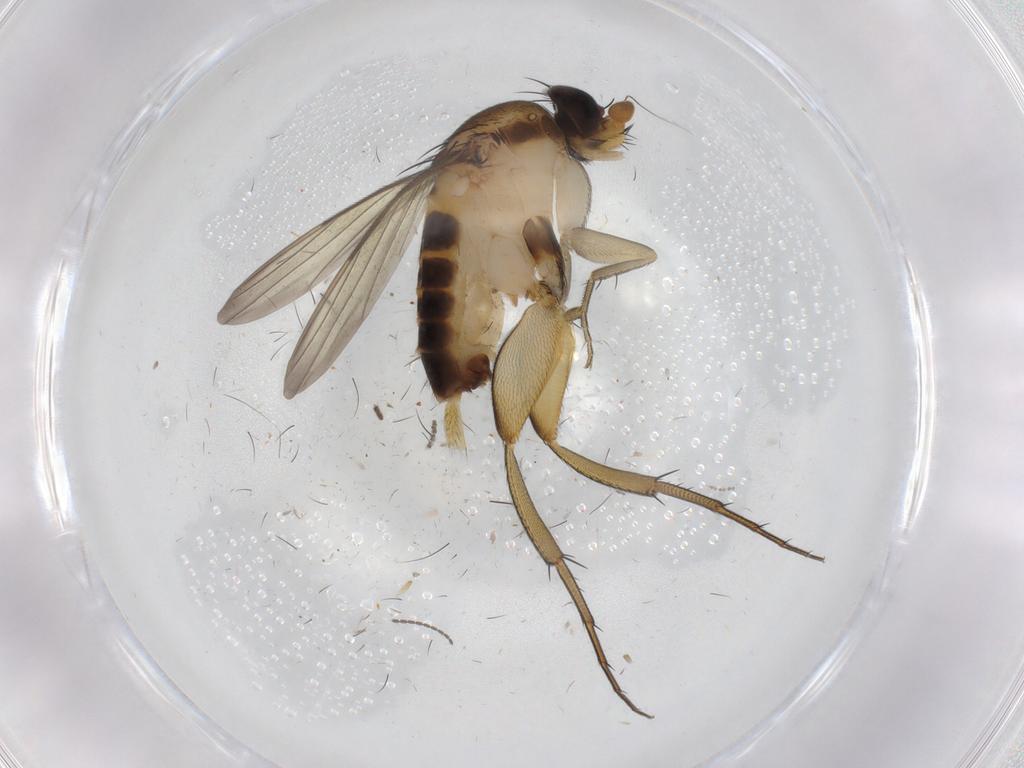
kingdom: Animalia
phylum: Arthropoda
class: Insecta
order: Diptera
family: Phoridae
